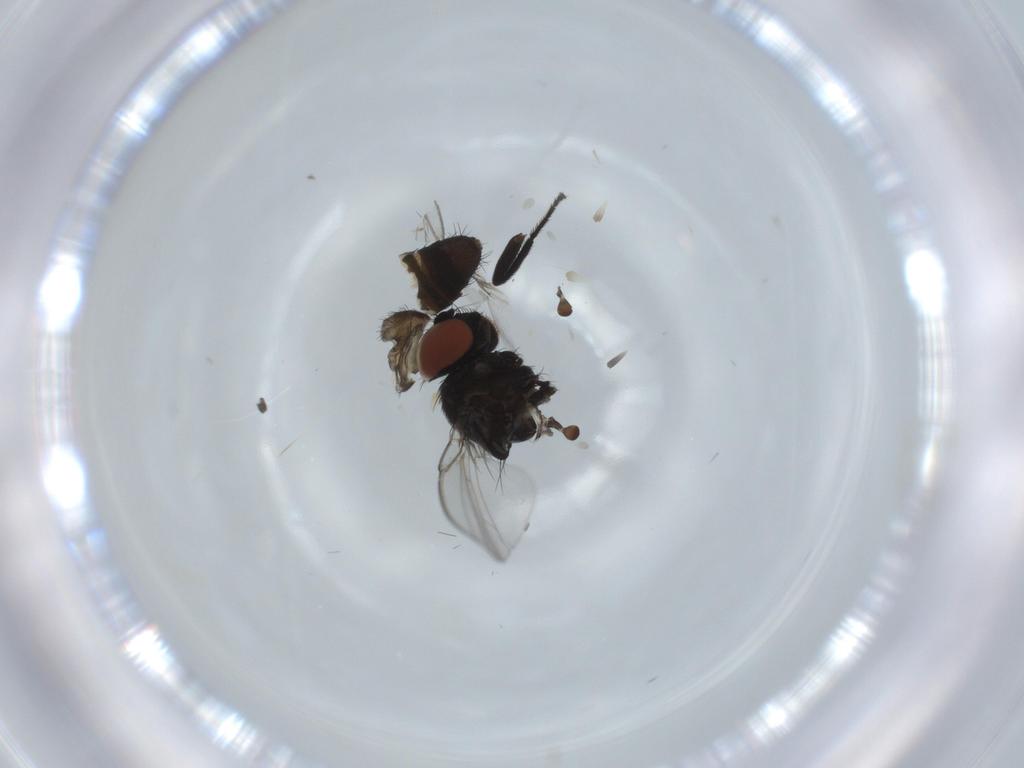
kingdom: Animalia
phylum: Arthropoda
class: Insecta
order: Diptera
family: Milichiidae
